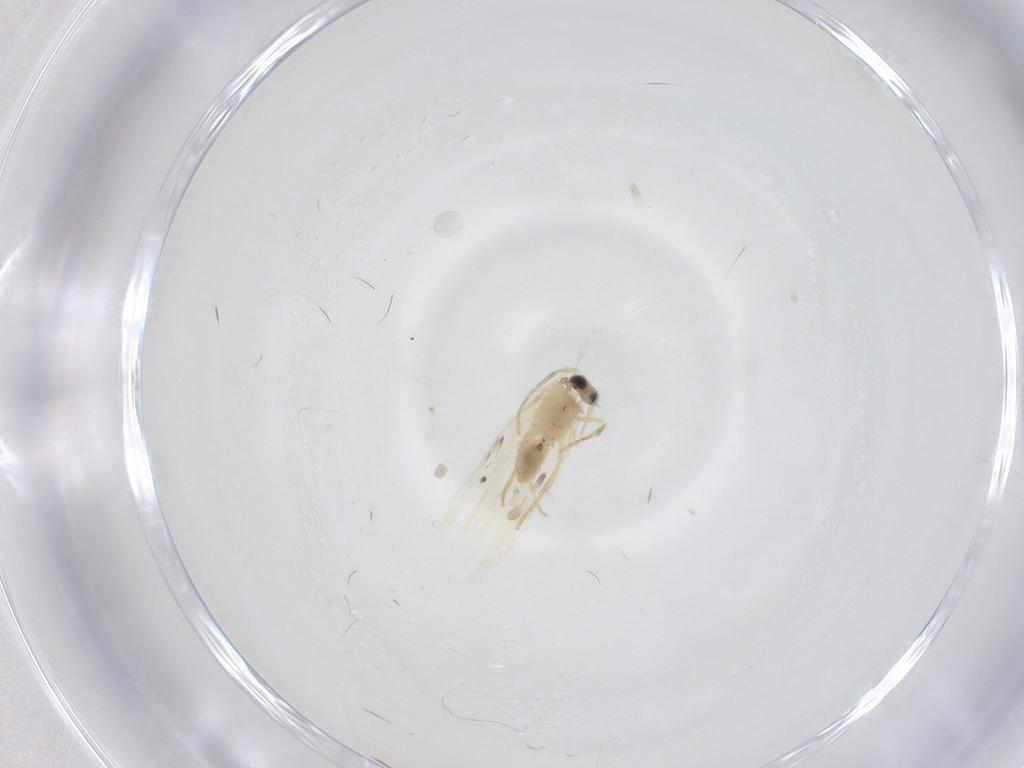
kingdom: Animalia
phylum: Arthropoda
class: Insecta
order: Lepidoptera
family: Nepticulidae
